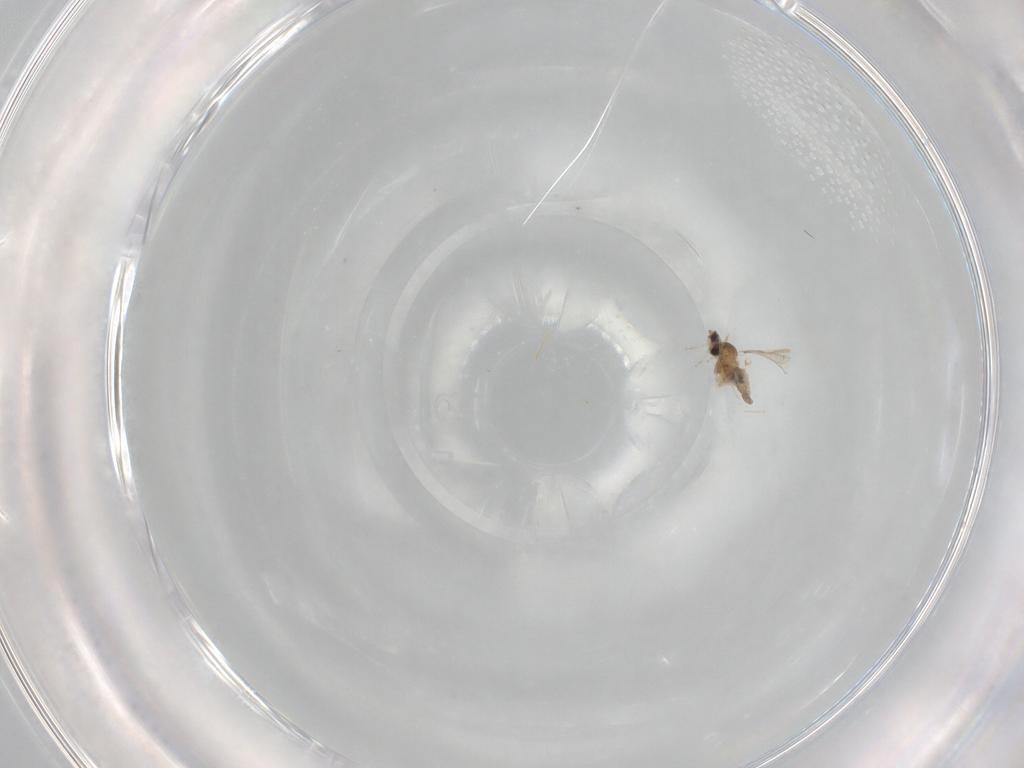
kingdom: Animalia
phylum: Arthropoda
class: Insecta
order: Diptera
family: Cecidomyiidae
